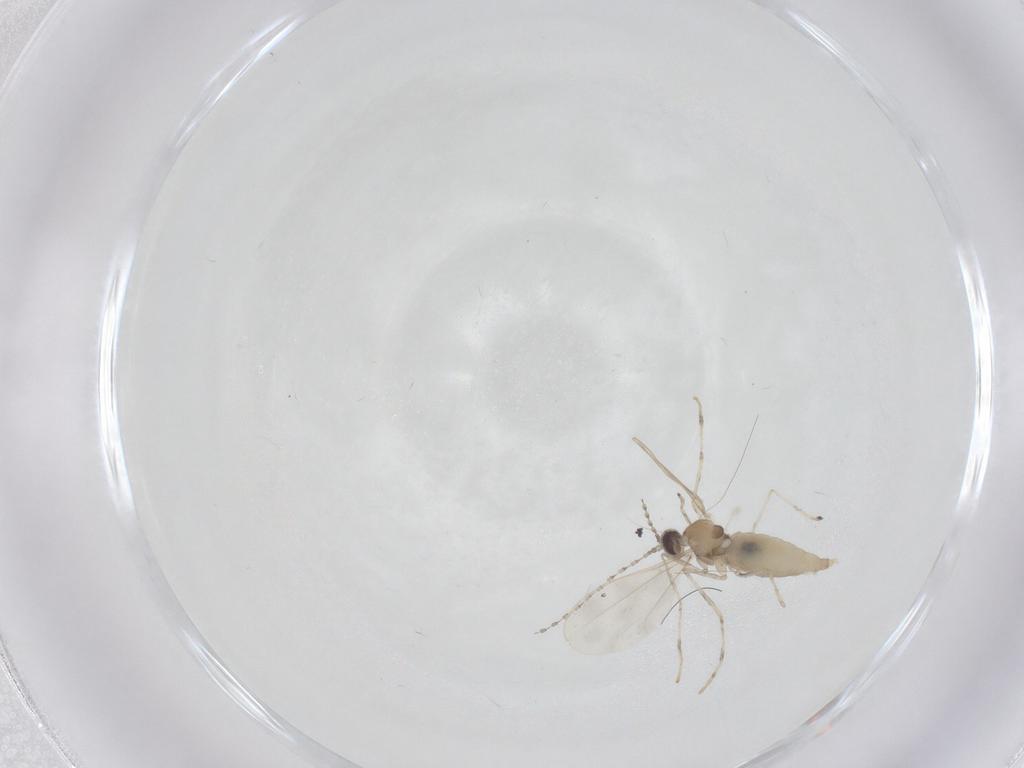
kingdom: Animalia
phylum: Arthropoda
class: Insecta
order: Diptera
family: Cecidomyiidae
